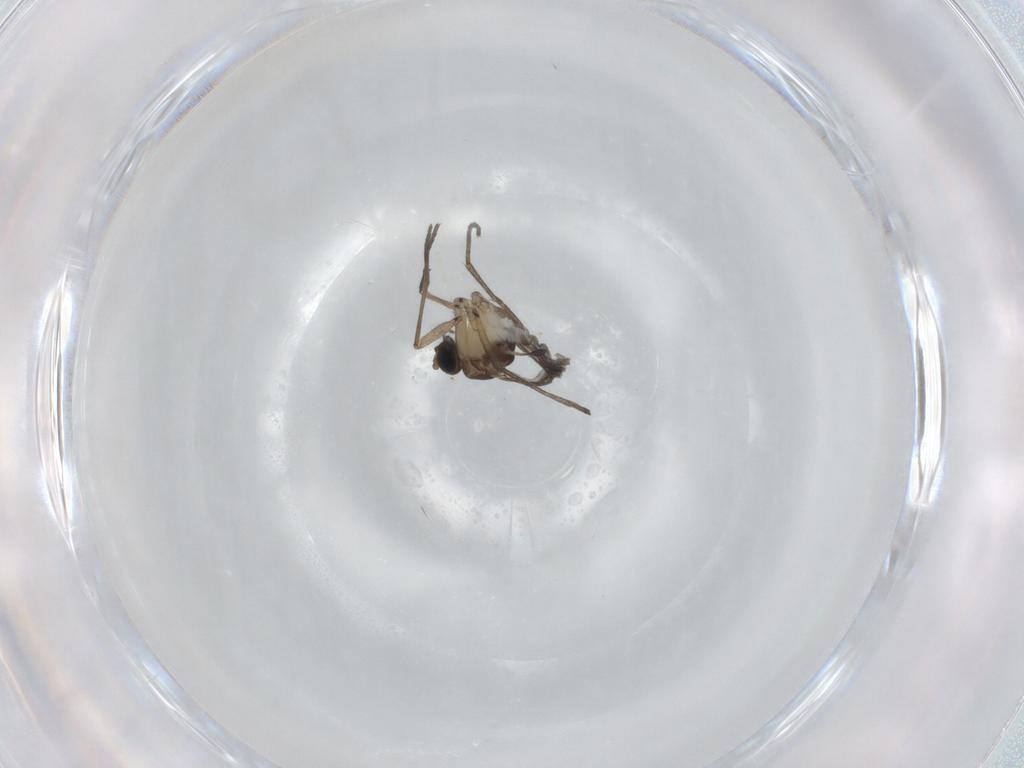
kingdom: Animalia
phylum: Arthropoda
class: Insecta
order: Diptera
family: Sciaridae
